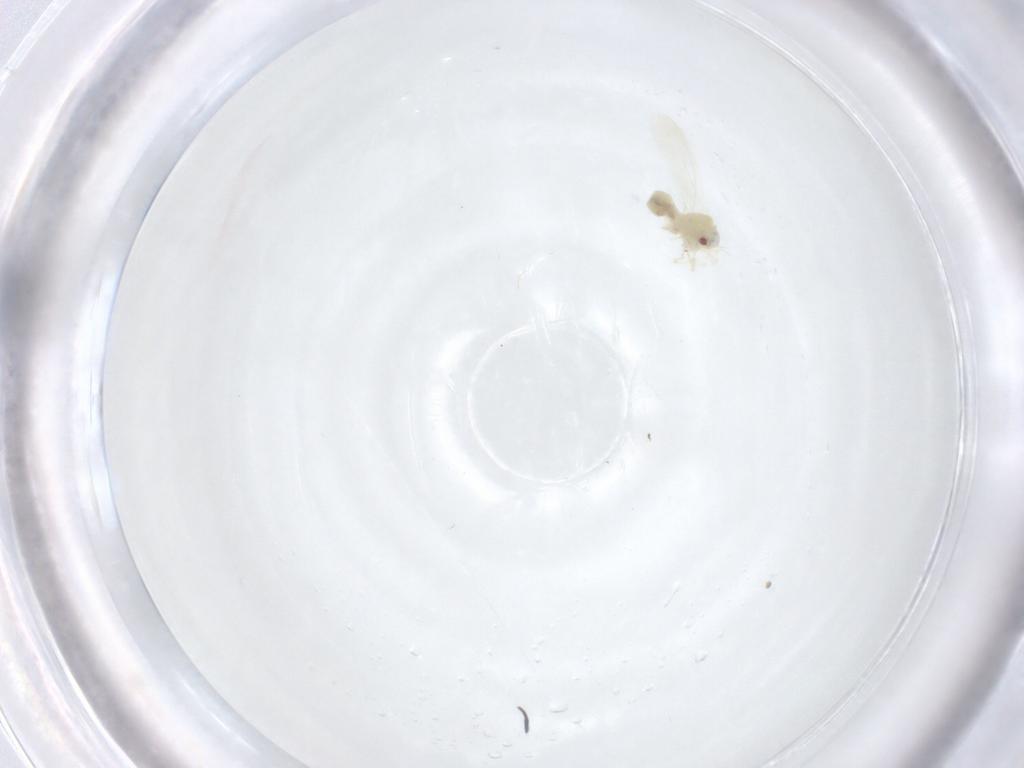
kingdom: Animalia
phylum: Arthropoda
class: Insecta
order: Hemiptera
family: Aleyrodidae
